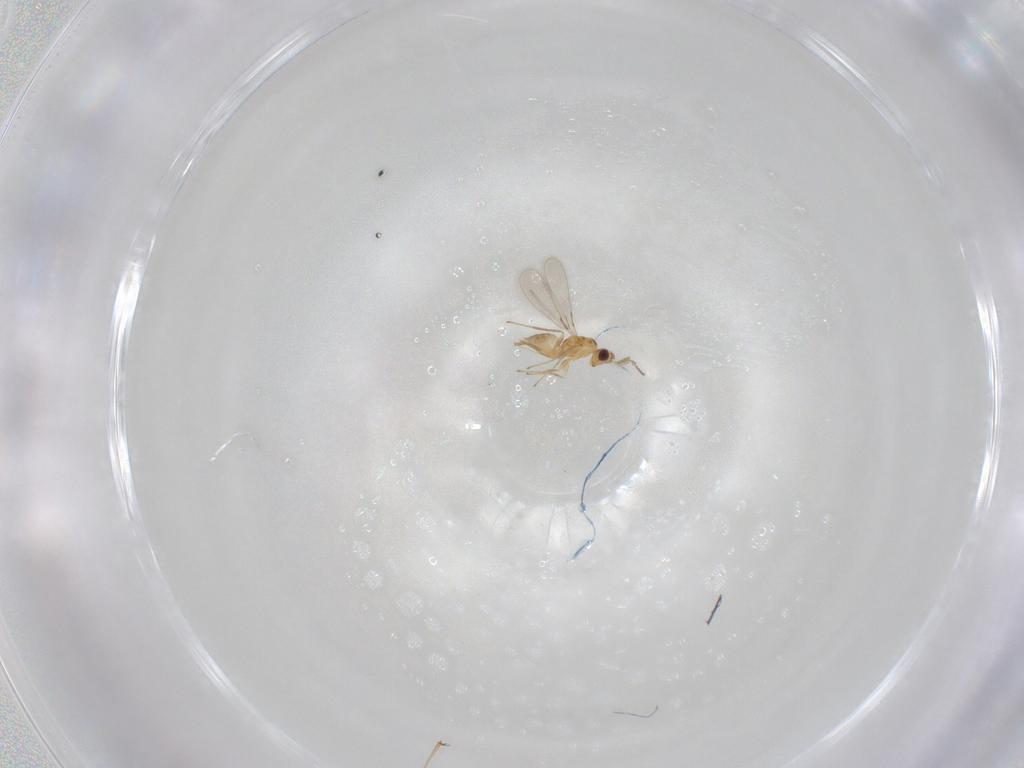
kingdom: Animalia
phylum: Arthropoda
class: Insecta
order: Hymenoptera
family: Mymaridae
